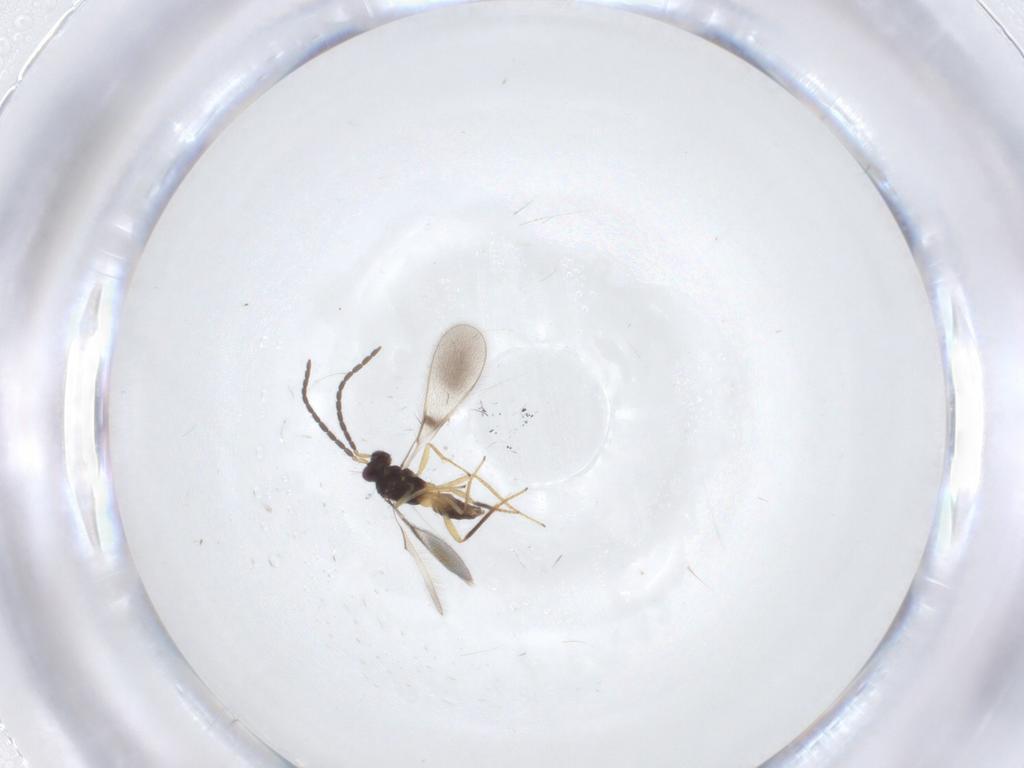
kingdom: Animalia
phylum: Arthropoda
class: Insecta
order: Hymenoptera
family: Mymaridae
